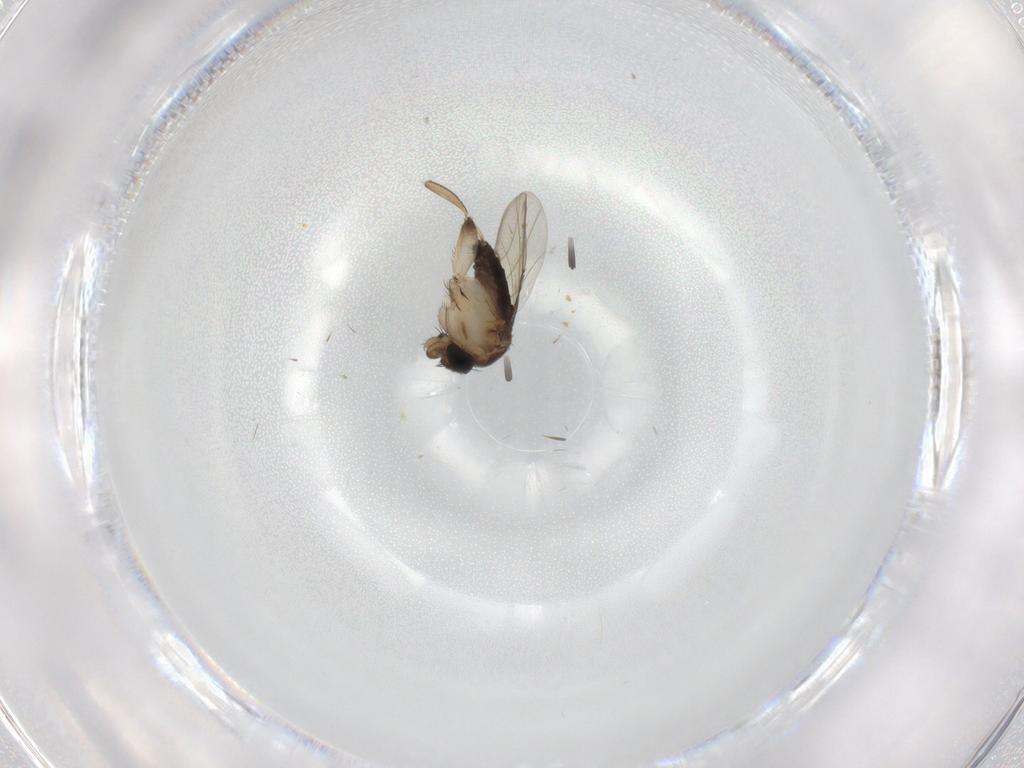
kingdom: Animalia
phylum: Arthropoda
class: Insecta
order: Diptera
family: Phoridae
